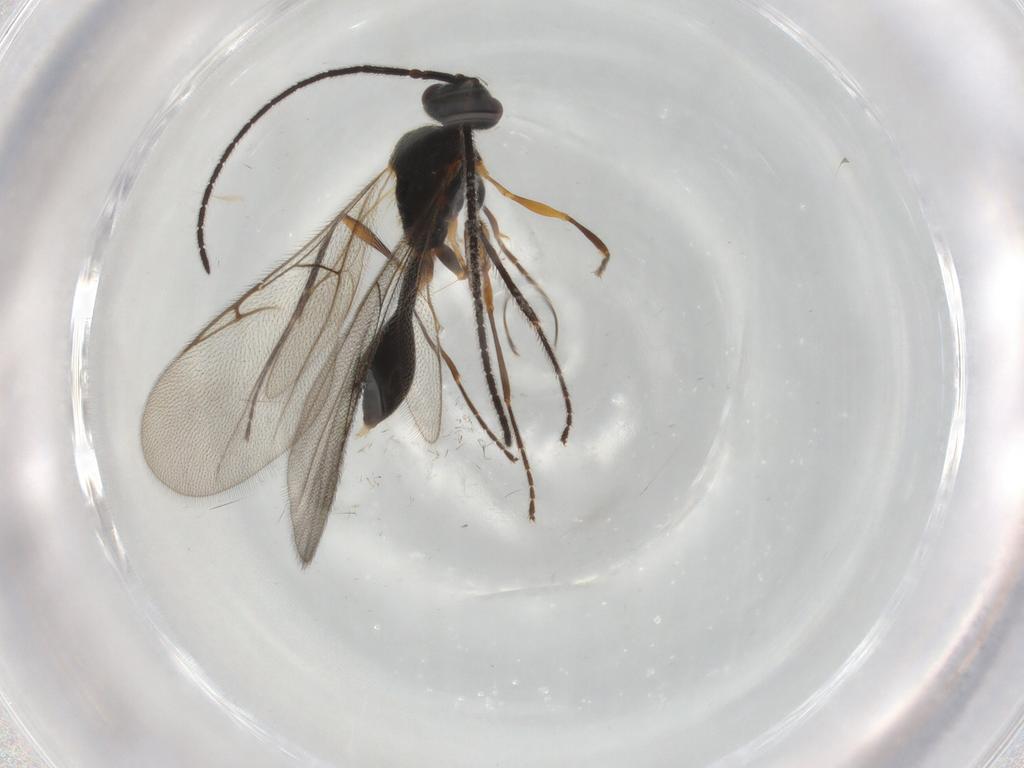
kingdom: Animalia
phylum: Arthropoda
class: Insecta
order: Hymenoptera
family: Diapriidae
